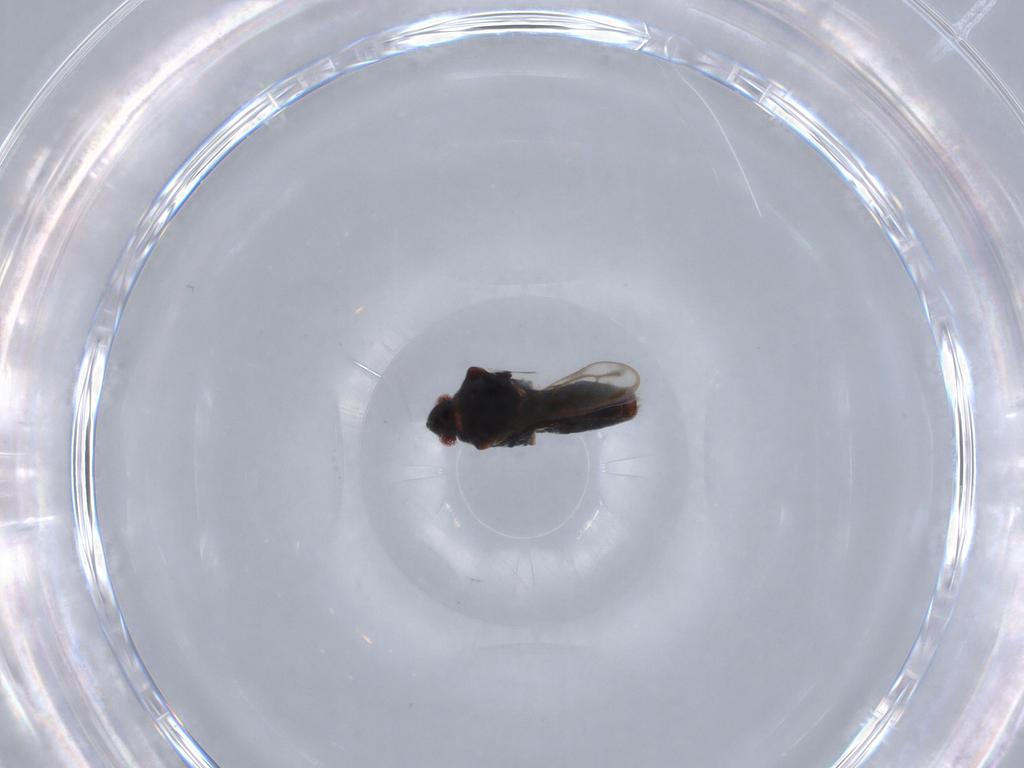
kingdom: Animalia
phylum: Arthropoda
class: Insecta
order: Hemiptera
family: Veliidae
